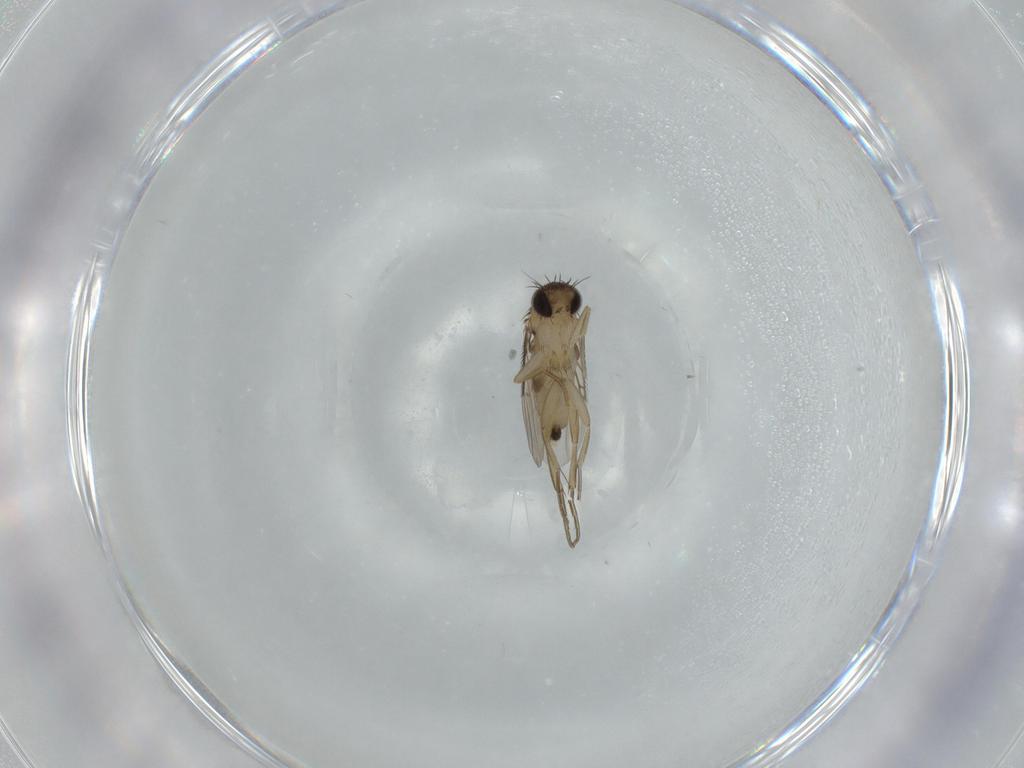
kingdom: Animalia
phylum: Arthropoda
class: Insecta
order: Diptera
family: Phoridae
